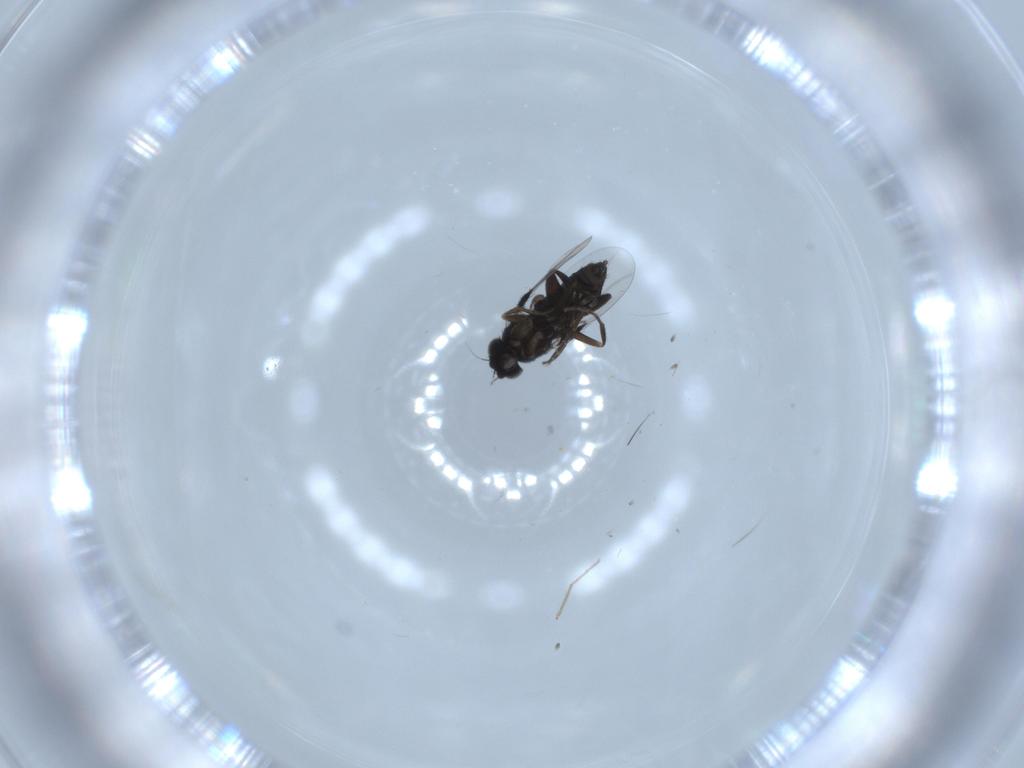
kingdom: Animalia
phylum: Arthropoda
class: Insecta
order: Diptera
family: Phoridae
